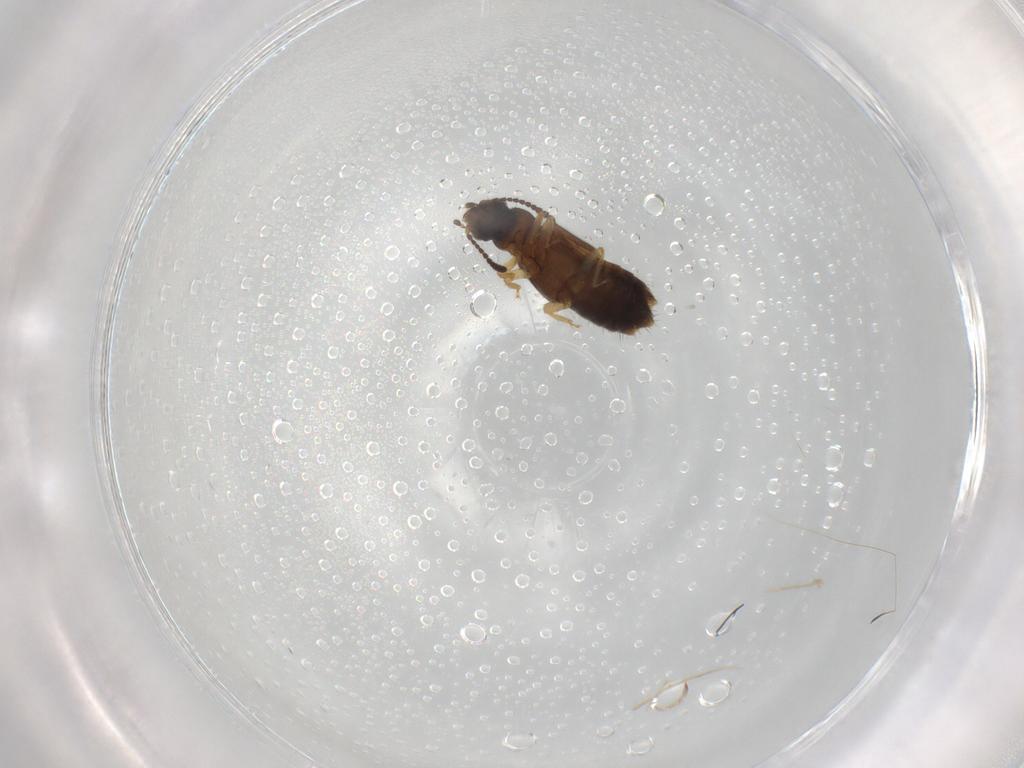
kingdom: Animalia
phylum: Arthropoda
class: Insecta
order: Coleoptera
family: Staphylinidae
